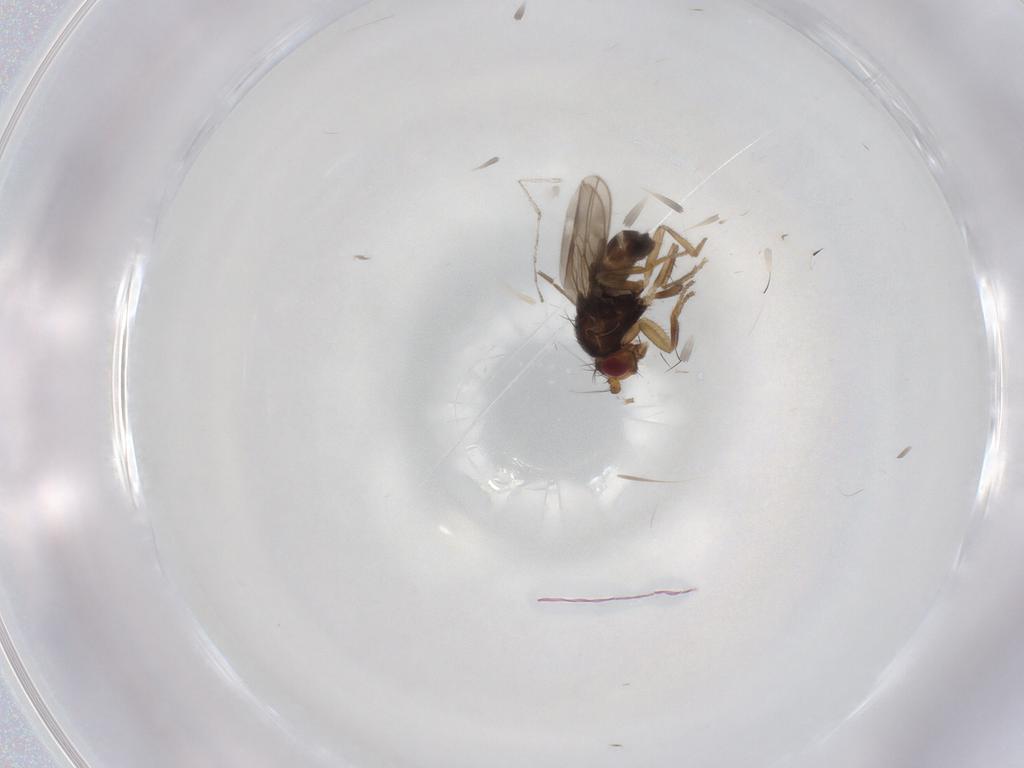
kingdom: Animalia
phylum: Arthropoda
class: Insecta
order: Diptera
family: Sphaeroceridae
